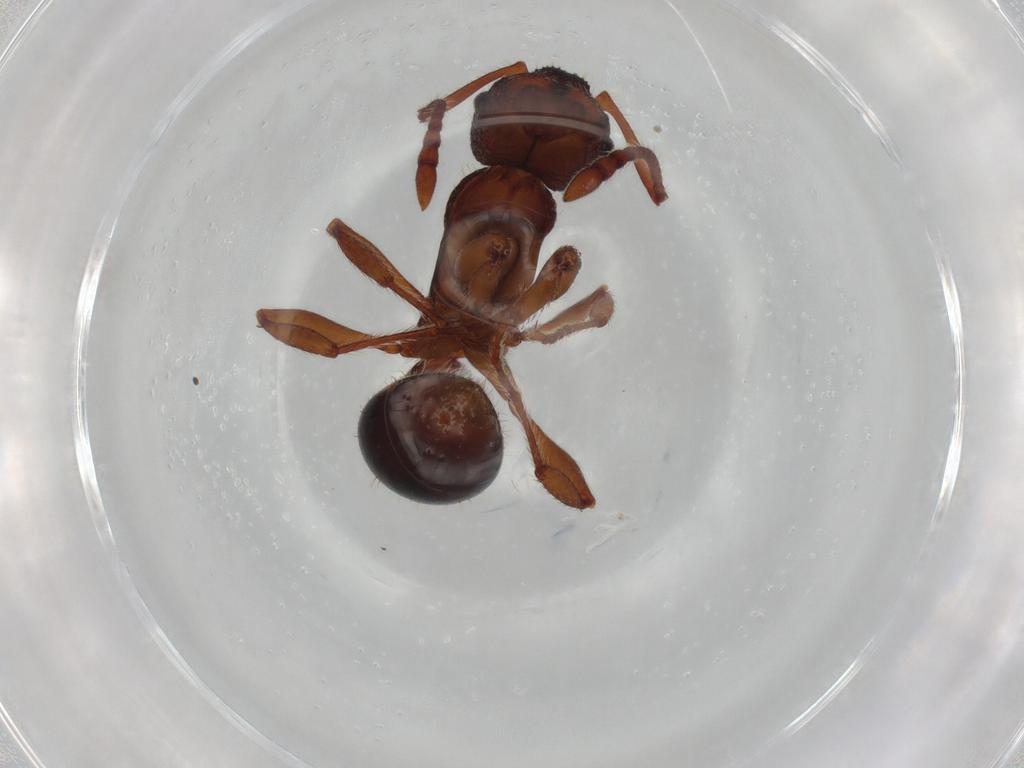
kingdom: Animalia
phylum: Arthropoda
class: Insecta
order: Hymenoptera
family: Formicidae
